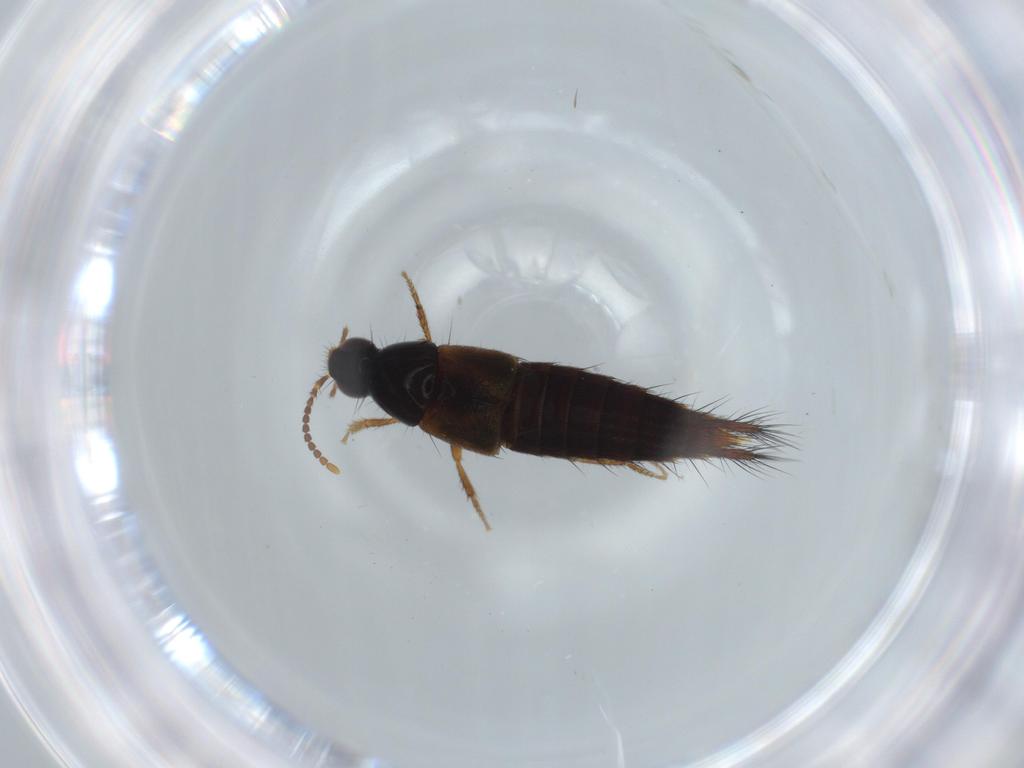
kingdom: Animalia
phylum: Arthropoda
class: Insecta
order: Coleoptera
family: Staphylinidae
